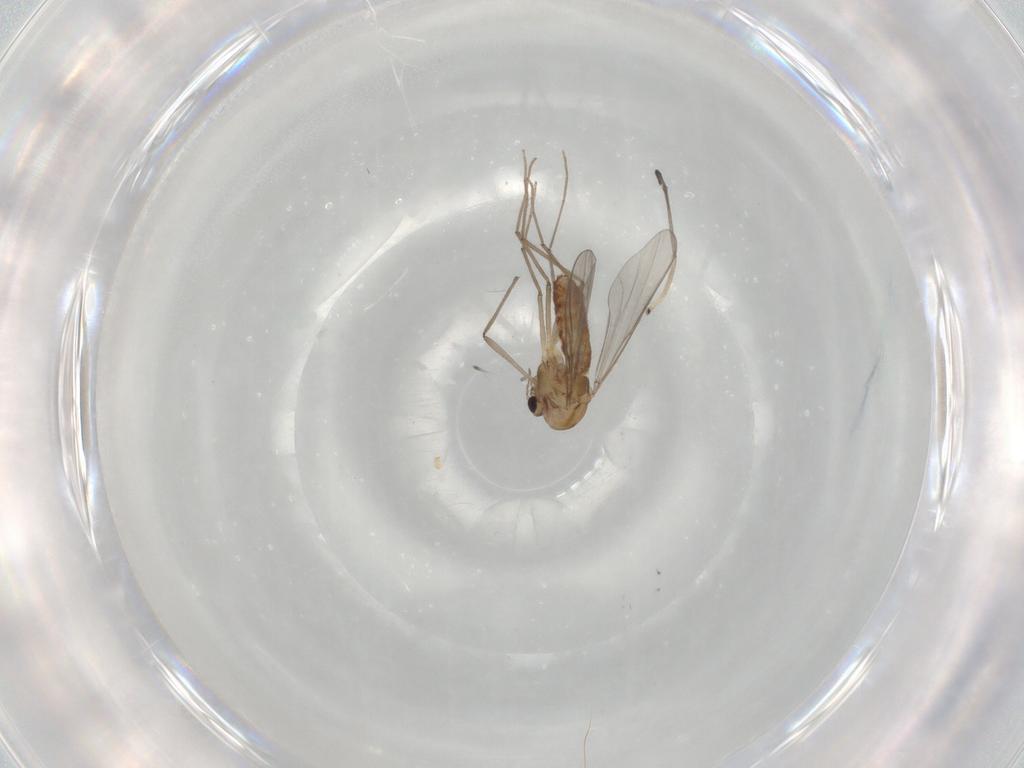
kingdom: Animalia
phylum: Arthropoda
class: Insecta
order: Diptera
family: Chironomidae
